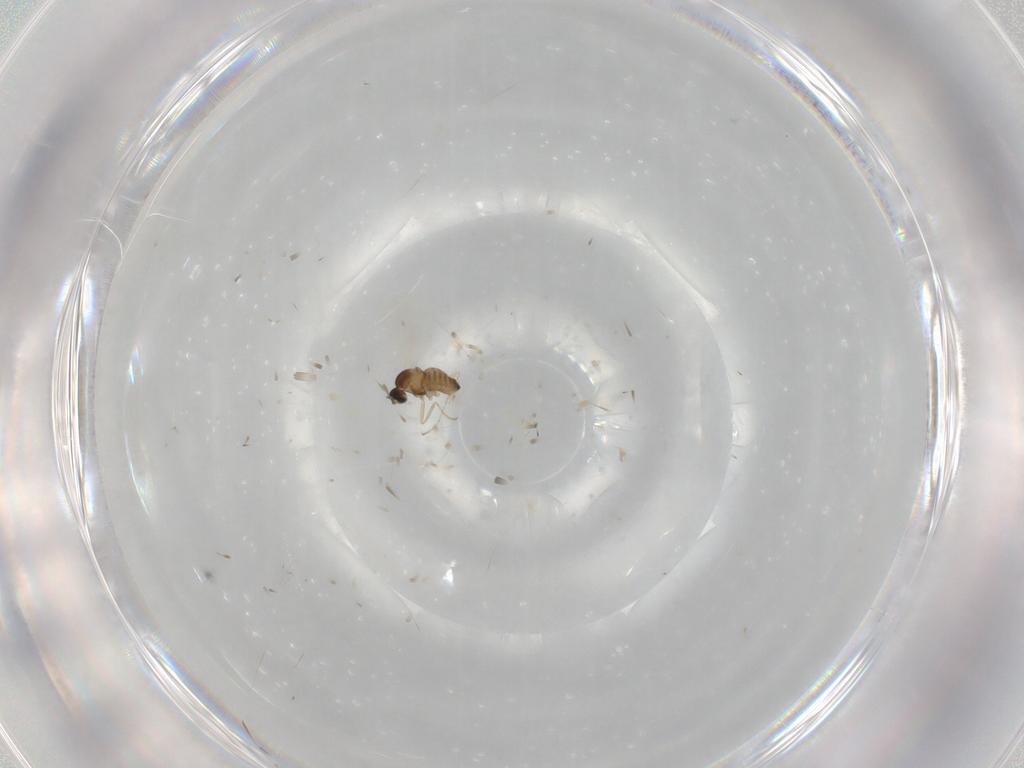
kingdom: Animalia
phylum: Arthropoda
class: Insecta
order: Diptera
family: Cecidomyiidae
